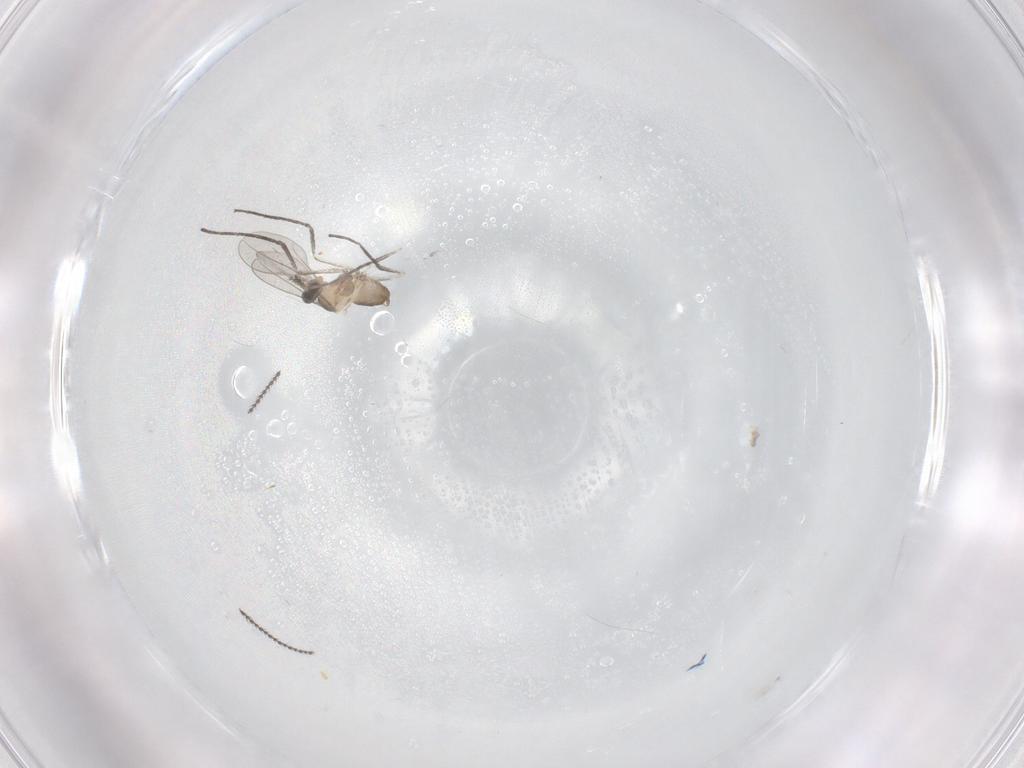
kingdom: Animalia
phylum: Arthropoda
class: Insecta
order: Diptera
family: Cecidomyiidae
